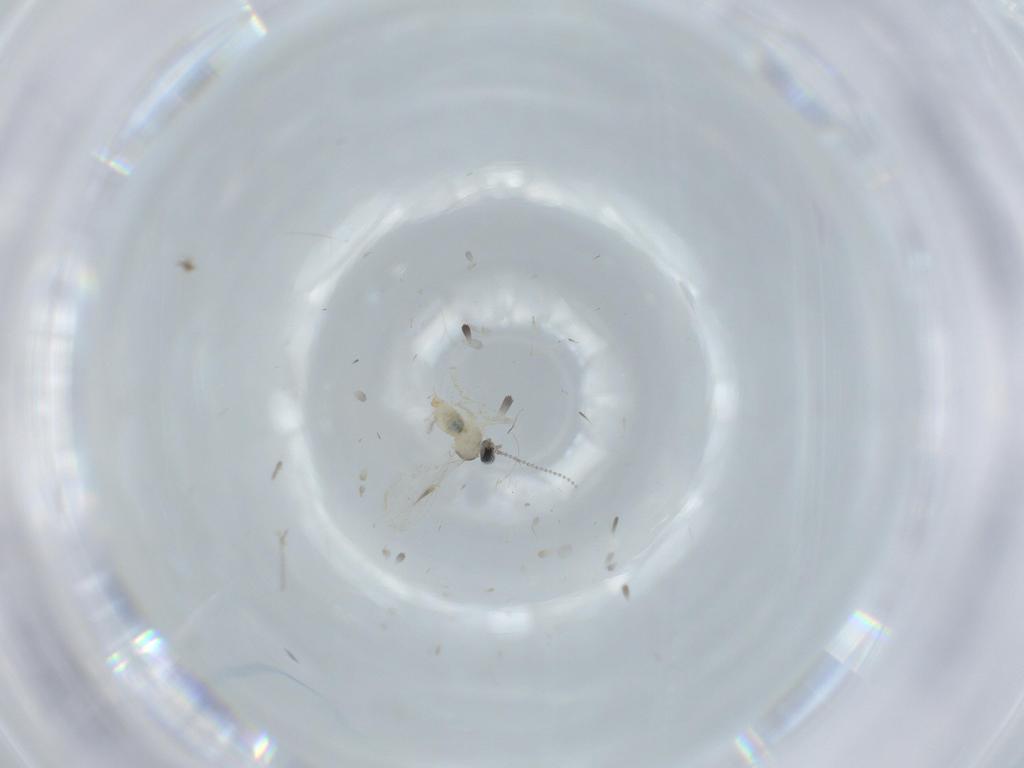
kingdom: Animalia
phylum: Arthropoda
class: Insecta
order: Diptera
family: Cecidomyiidae
